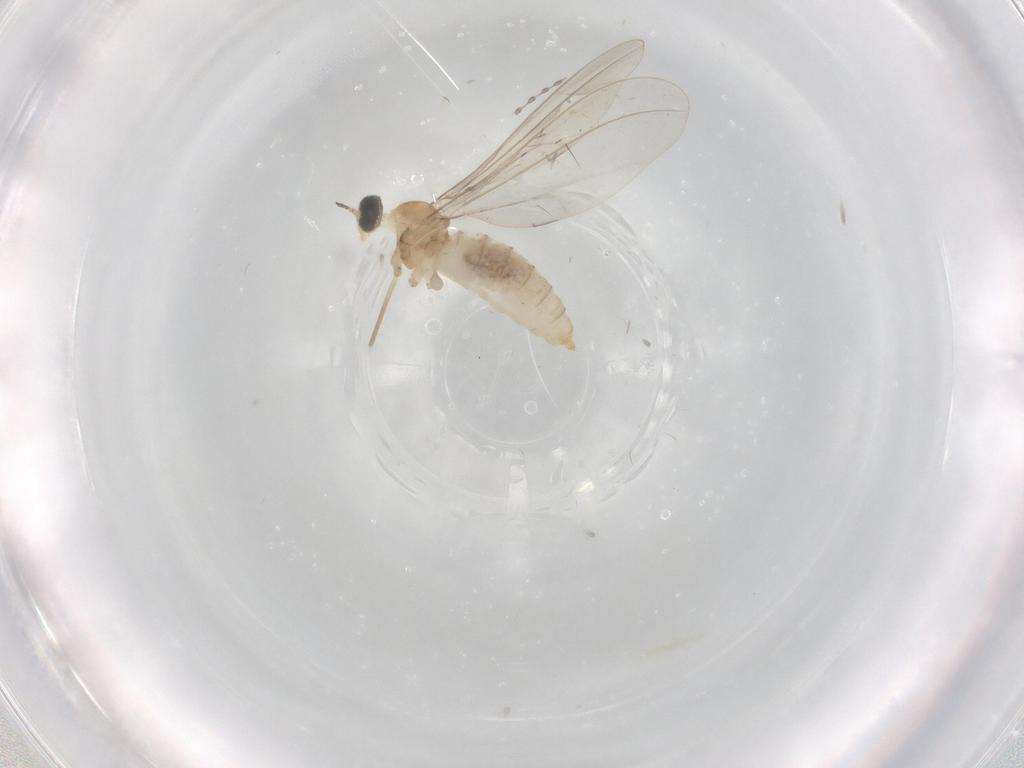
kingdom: Animalia
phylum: Arthropoda
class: Insecta
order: Diptera
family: Cecidomyiidae
